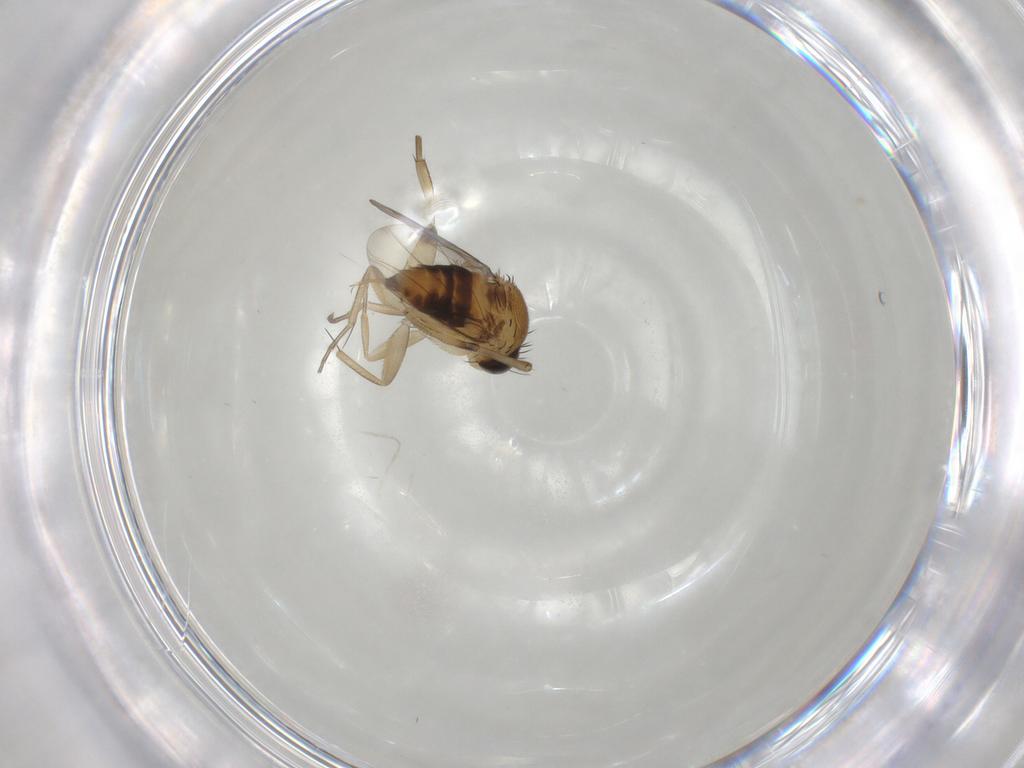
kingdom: Animalia
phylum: Arthropoda
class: Insecta
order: Diptera
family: Phoridae
